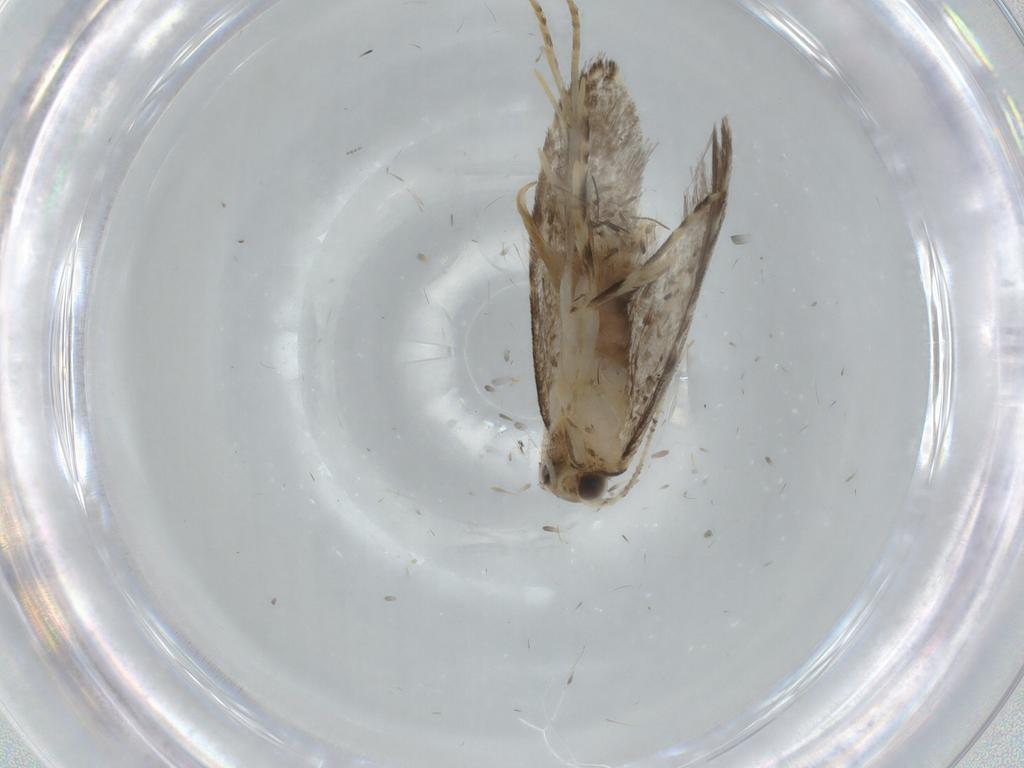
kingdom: Animalia
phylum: Arthropoda
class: Insecta
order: Lepidoptera
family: Tineidae
